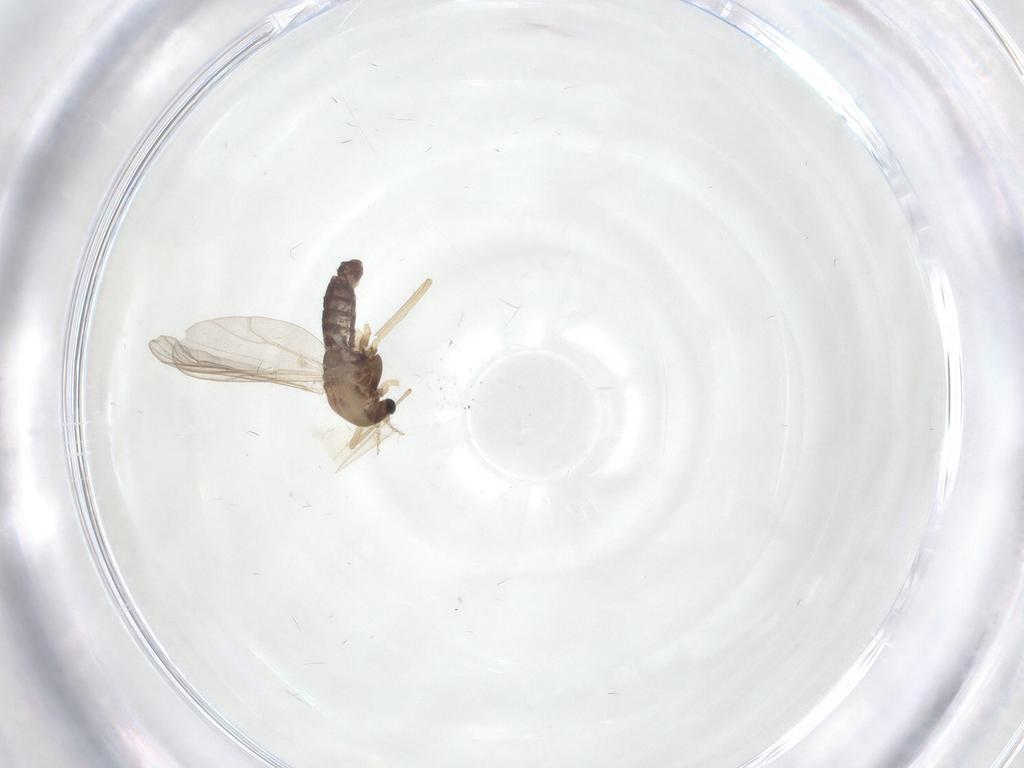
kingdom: Animalia
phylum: Arthropoda
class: Insecta
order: Diptera
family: Chironomidae
